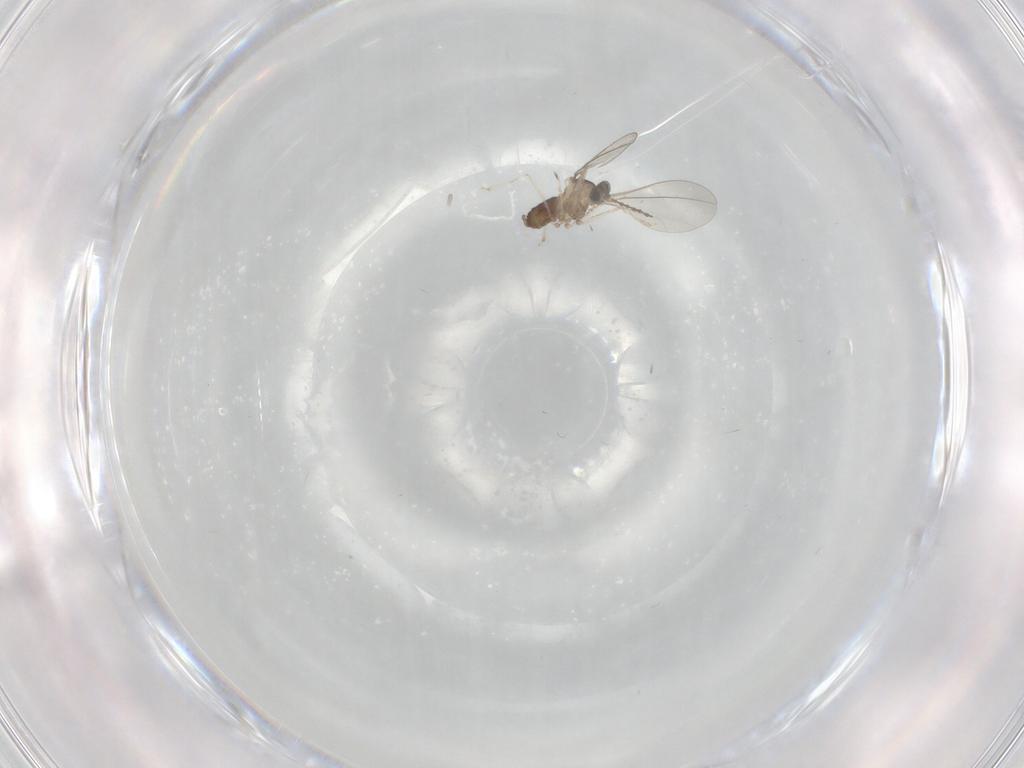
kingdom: Animalia
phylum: Arthropoda
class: Insecta
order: Diptera
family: Cecidomyiidae
